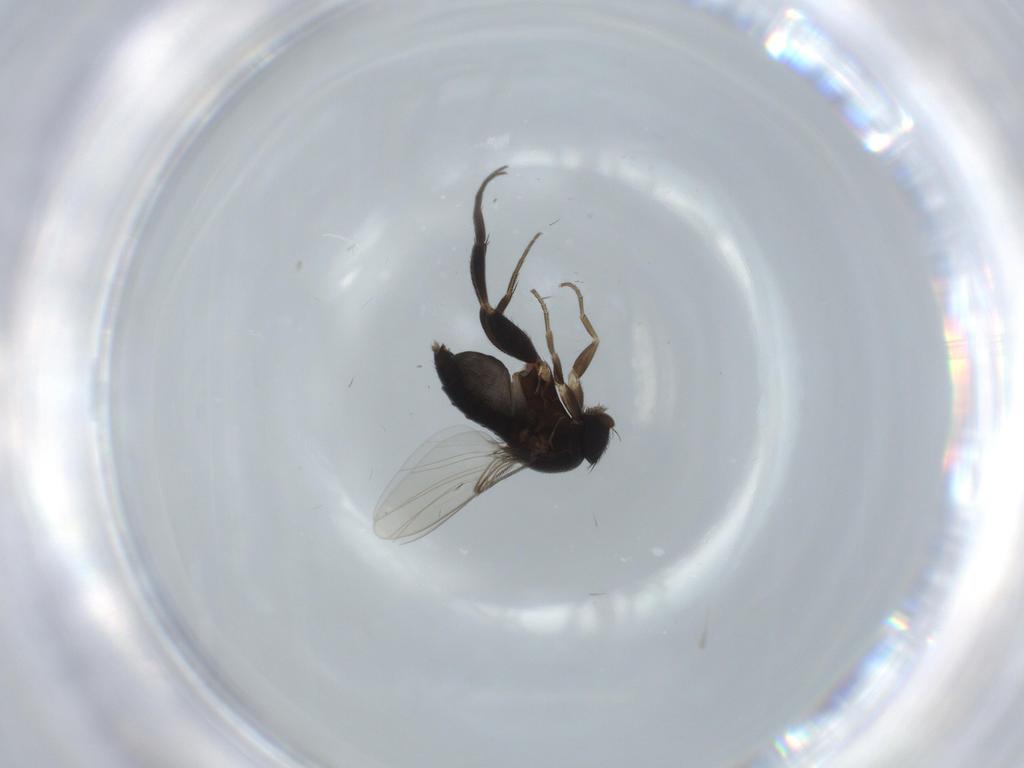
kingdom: Animalia
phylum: Arthropoda
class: Insecta
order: Diptera
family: Phoridae
